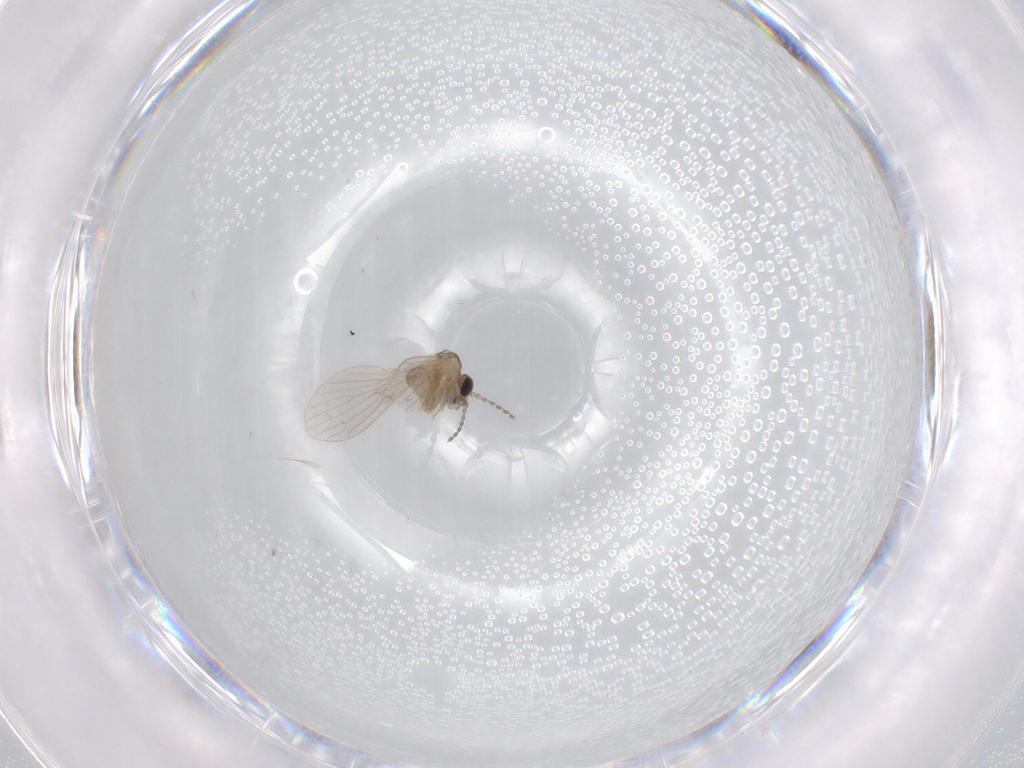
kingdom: Animalia
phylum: Arthropoda
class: Insecta
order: Diptera
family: Psychodidae
